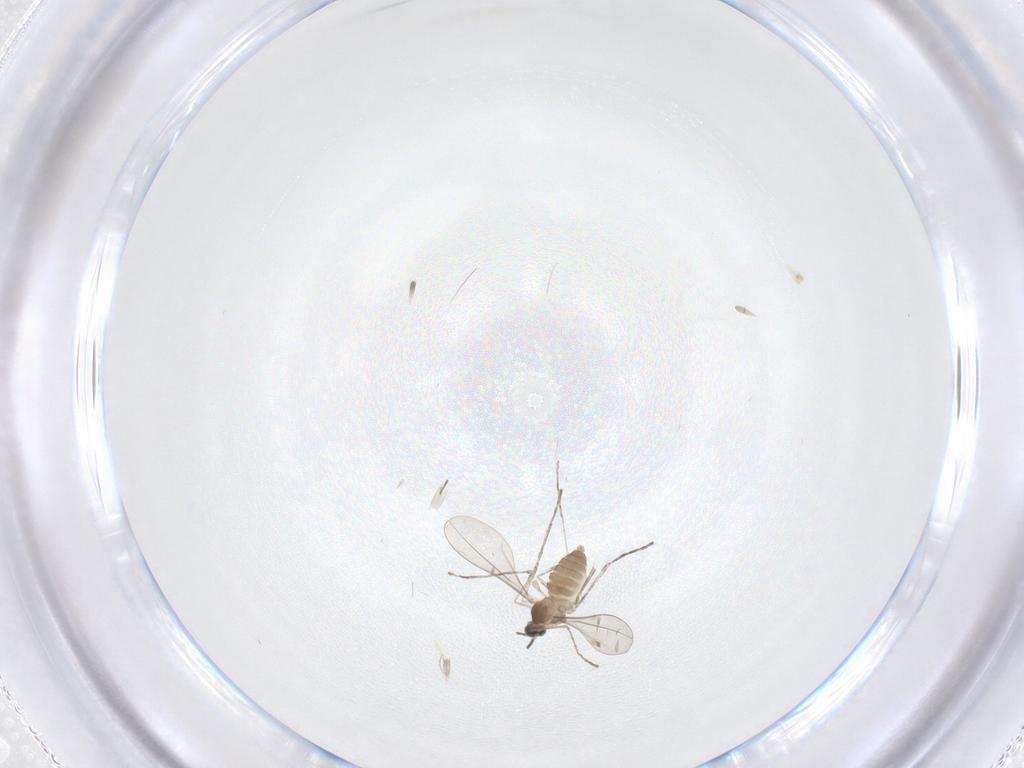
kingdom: Animalia
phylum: Arthropoda
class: Insecta
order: Diptera
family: Cecidomyiidae
